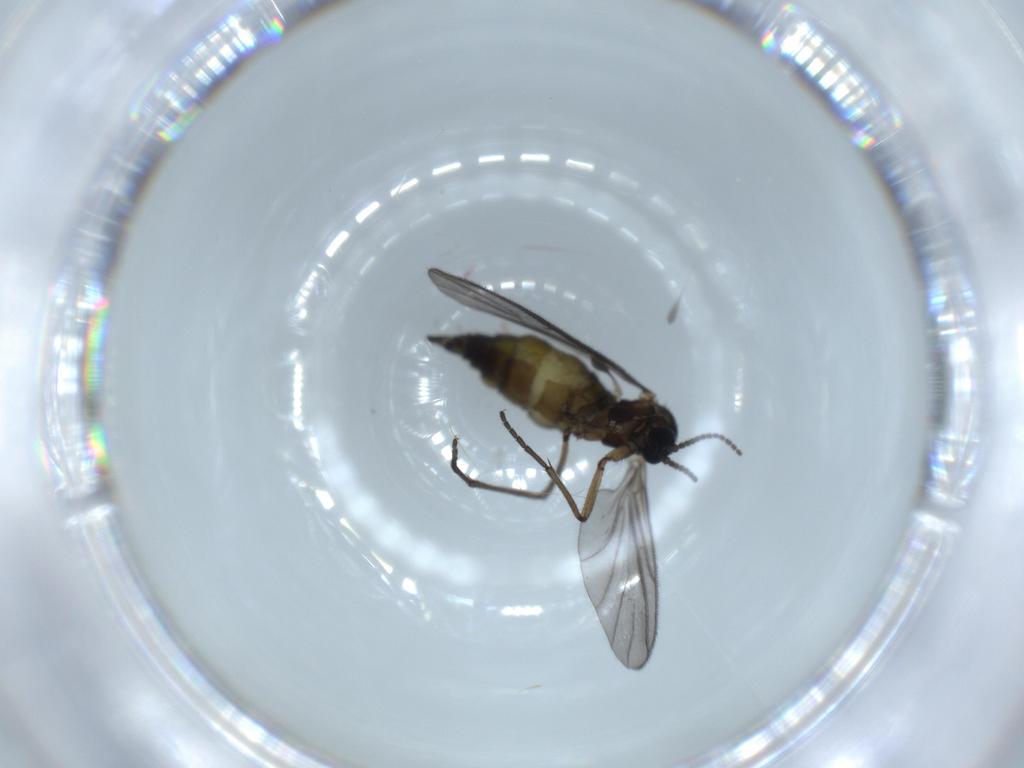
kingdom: Animalia
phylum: Arthropoda
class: Insecta
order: Diptera
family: Sciaridae
